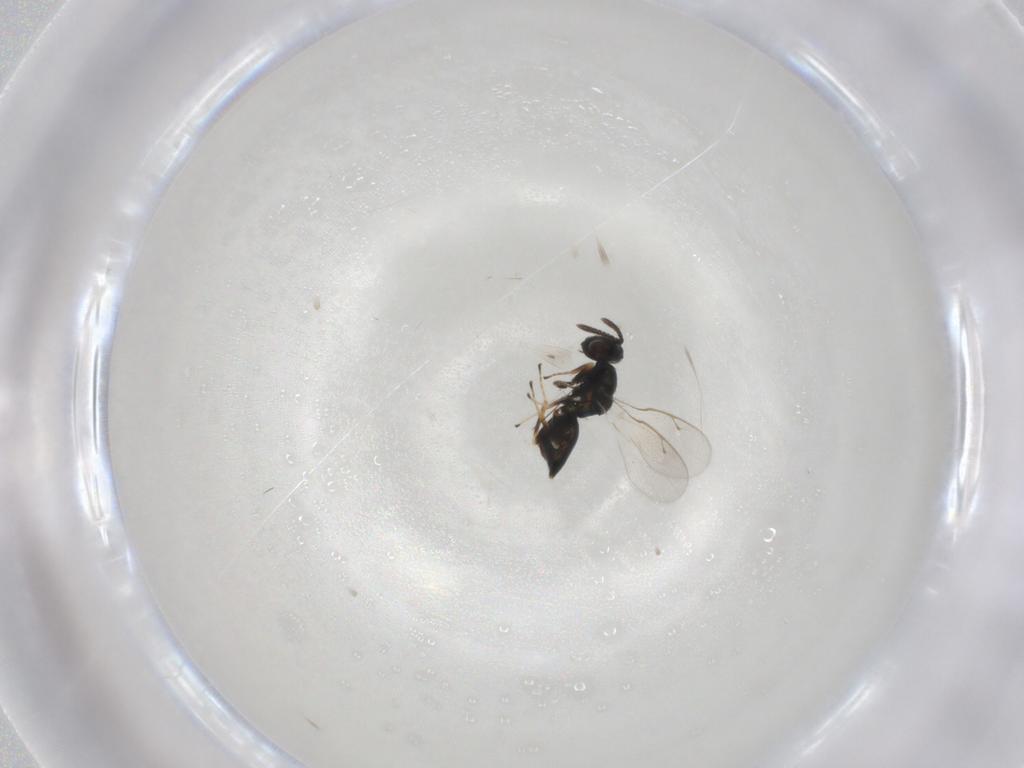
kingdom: Animalia
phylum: Arthropoda
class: Insecta
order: Hymenoptera
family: Pteromalidae
